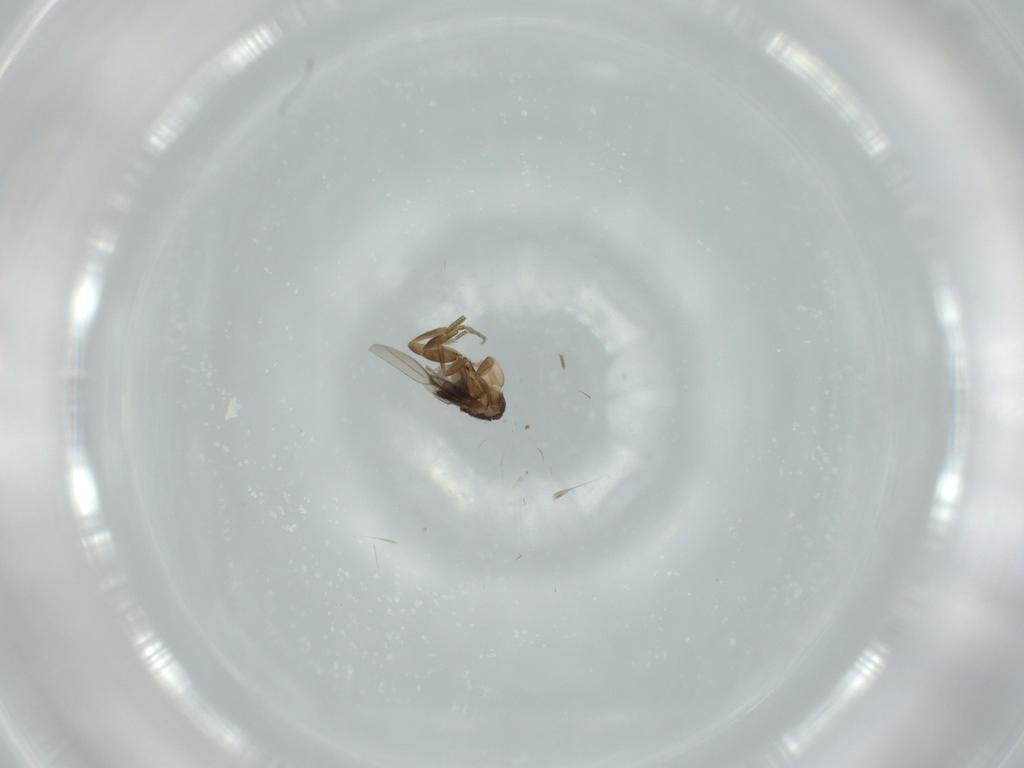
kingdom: Animalia
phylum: Arthropoda
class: Insecta
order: Diptera
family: Phoridae
